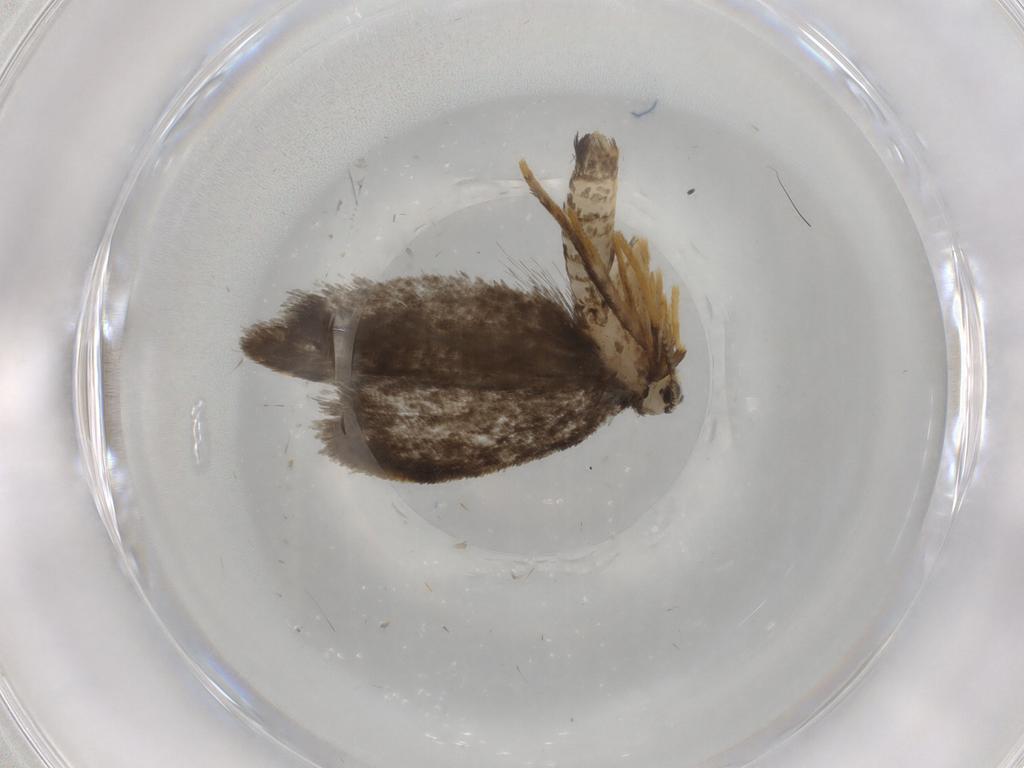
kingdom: Animalia
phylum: Arthropoda
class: Insecta
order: Lepidoptera
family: Psychidae
